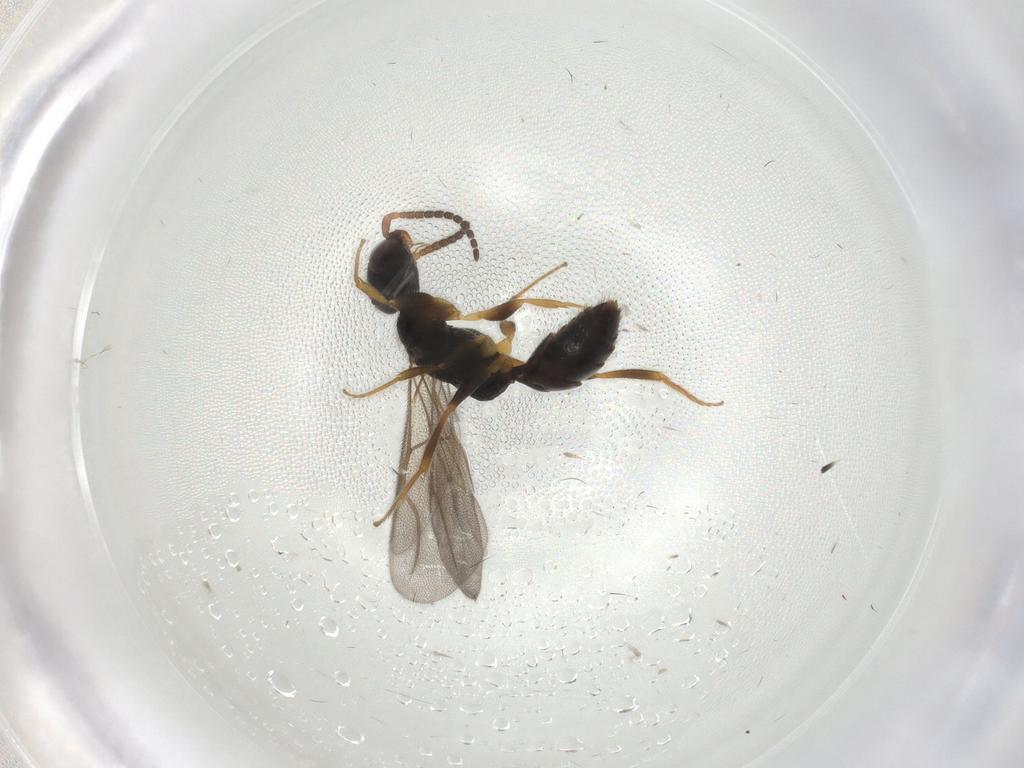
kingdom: Animalia
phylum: Arthropoda
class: Insecta
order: Hymenoptera
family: Bethylidae
